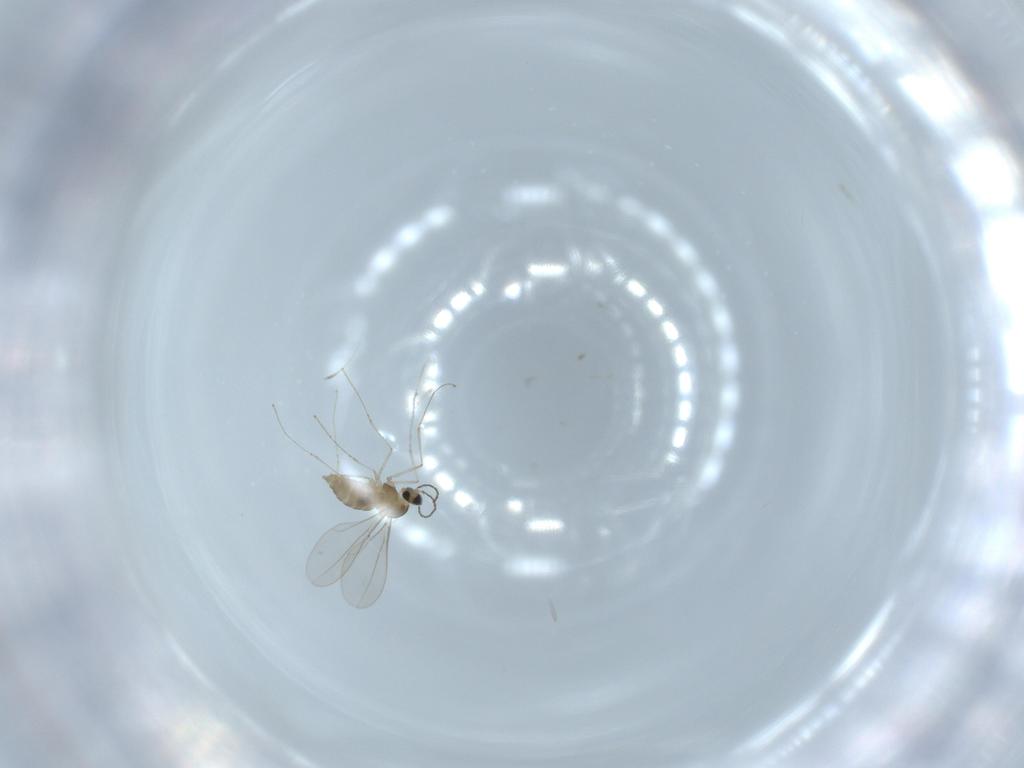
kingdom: Animalia
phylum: Arthropoda
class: Insecta
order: Diptera
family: Cecidomyiidae
